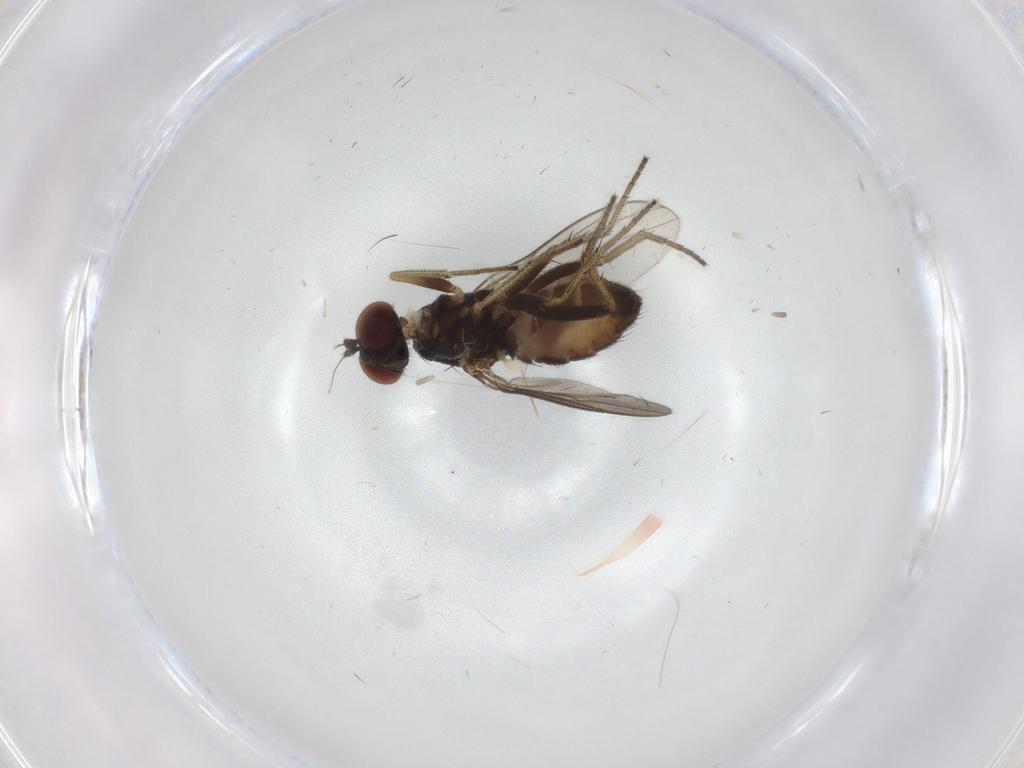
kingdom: Animalia
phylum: Arthropoda
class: Insecta
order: Diptera
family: Dolichopodidae
